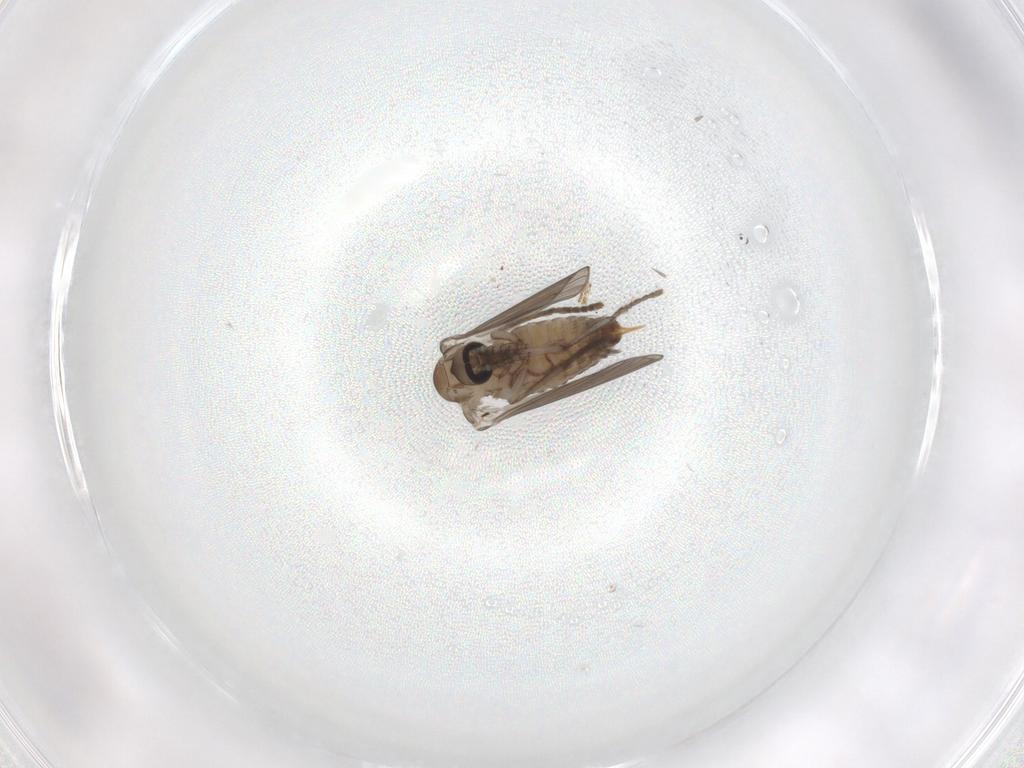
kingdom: Animalia
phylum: Arthropoda
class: Insecta
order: Diptera
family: Psychodidae
